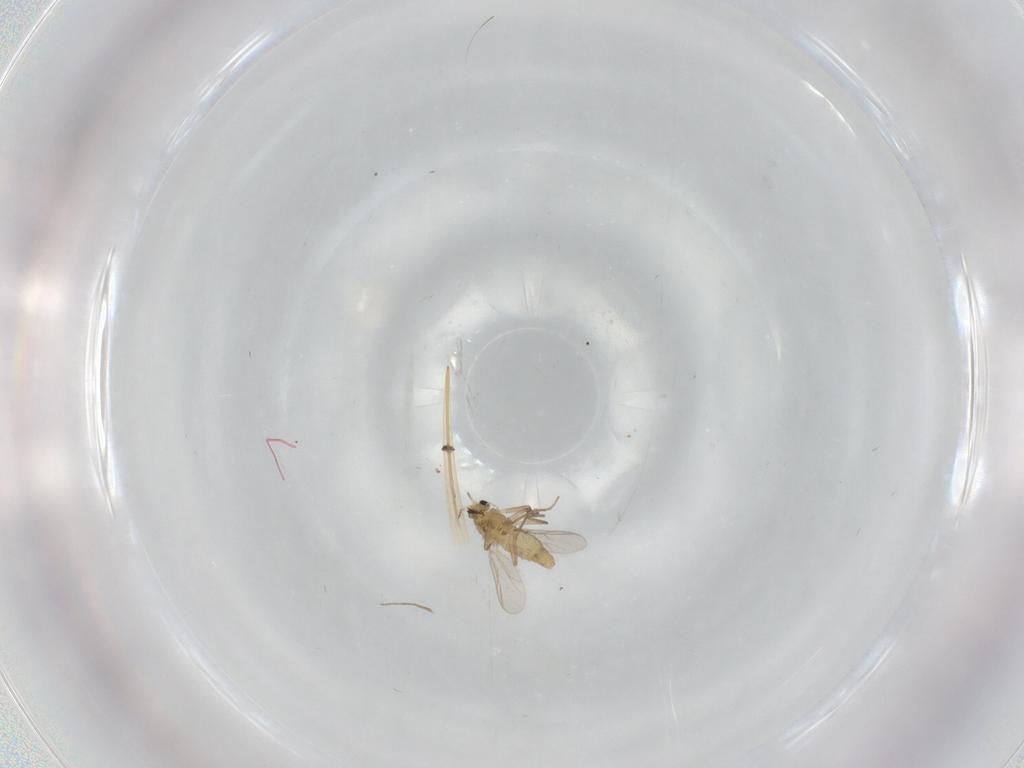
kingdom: Animalia
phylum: Arthropoda
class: Insecta
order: Diptera
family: Chironomidae
